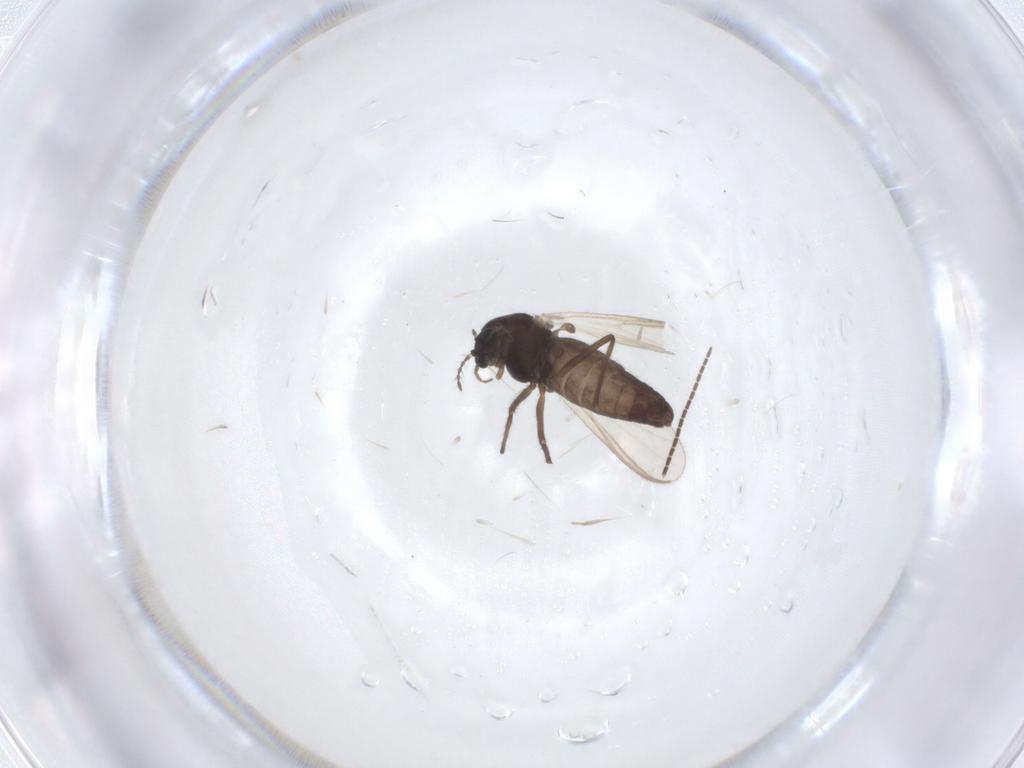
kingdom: Animalia
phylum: Arthropoda
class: Insecta
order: Diptera
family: Sciaridae
